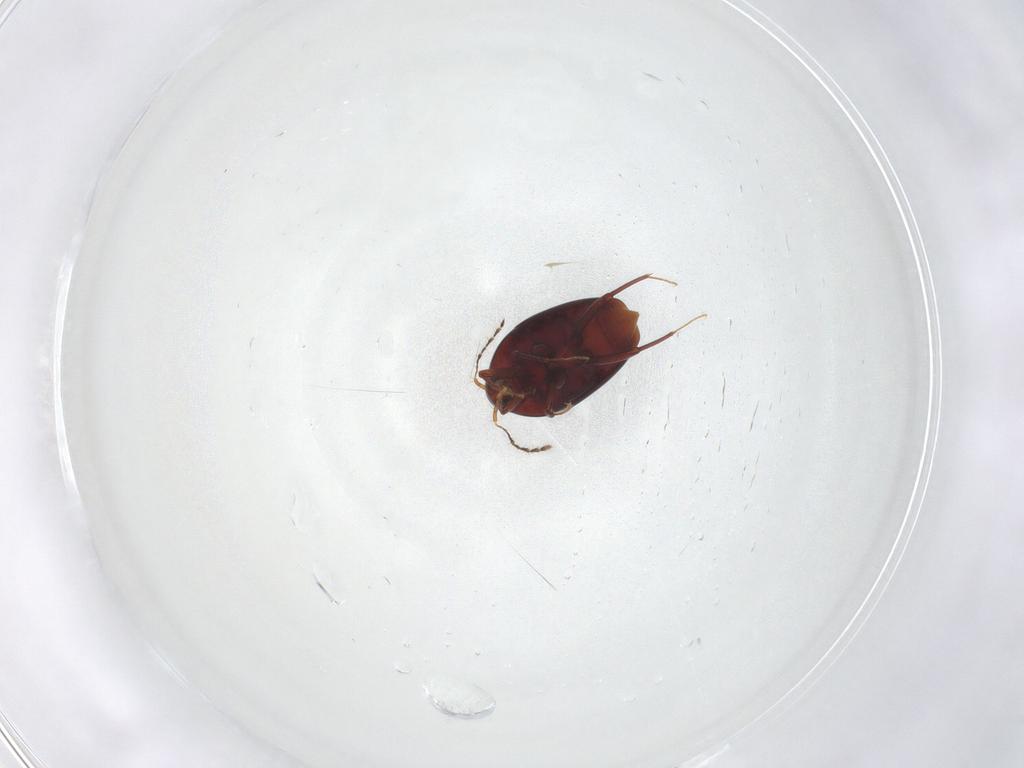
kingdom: Animalia
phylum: Arthropoda
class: Insecta
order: Coleoptera
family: Staphylinidae
